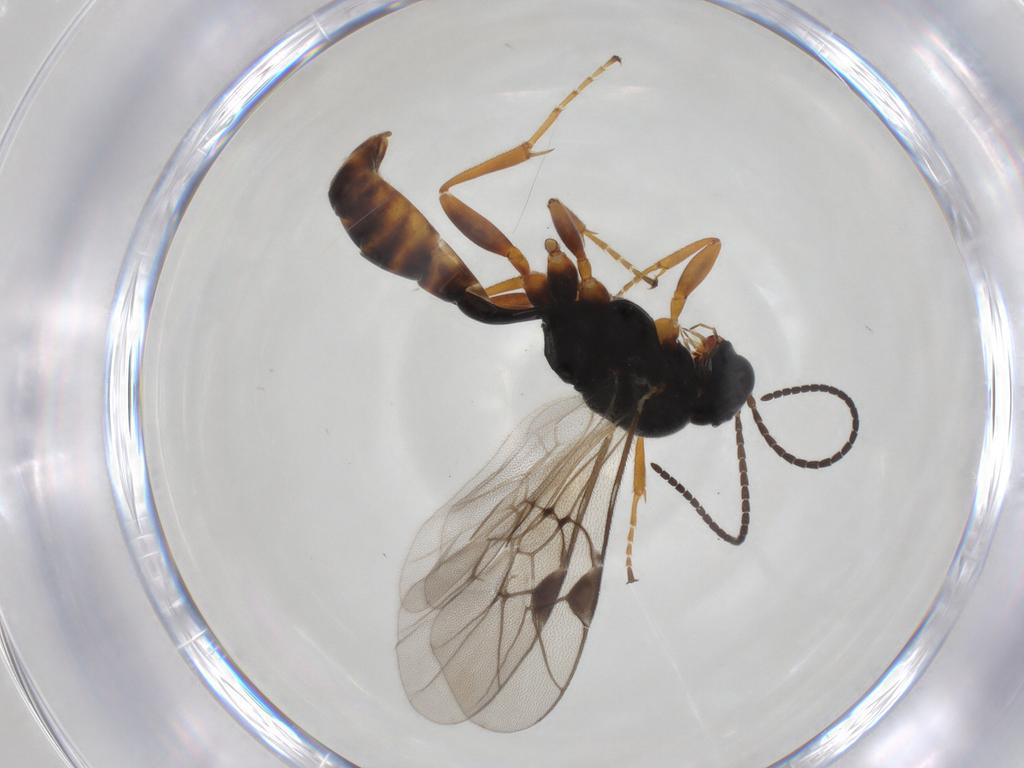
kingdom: Animalia
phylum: Arthropoda
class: Insecta
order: Hymenoptera
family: Ichneumonidae
